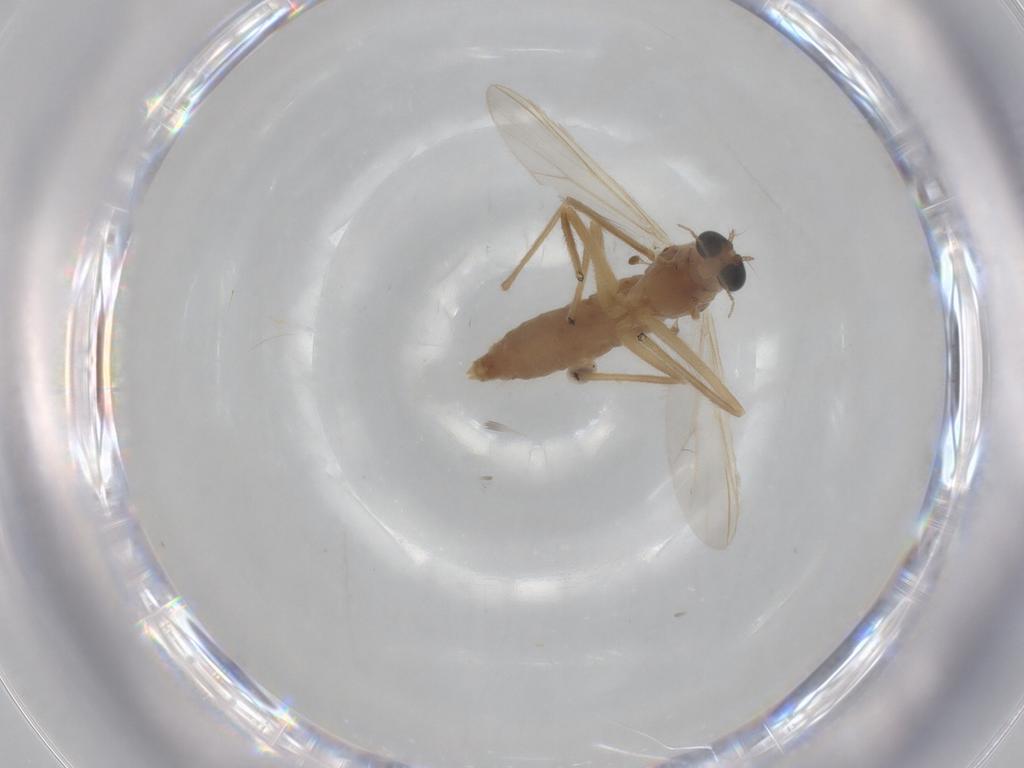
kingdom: Animalia
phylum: Arthropoda
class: Insecta
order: Diptera
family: Chironomidae
